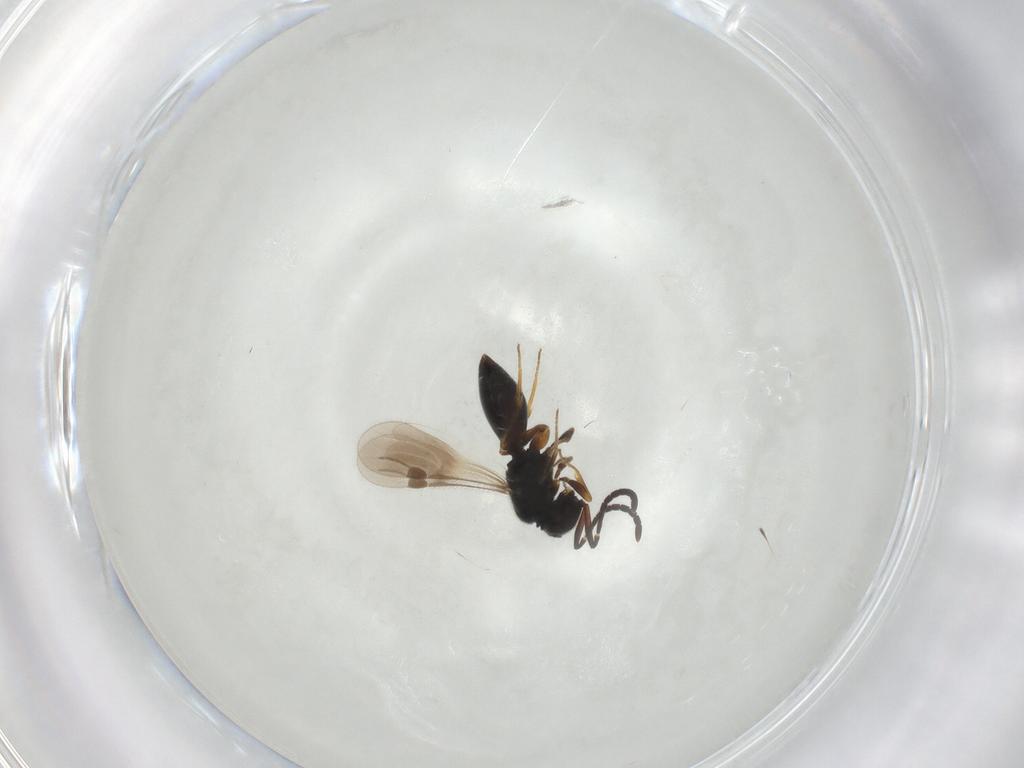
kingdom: Animalia
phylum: Arthropoda
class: Insecta
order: Hymenoptera
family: Apidae
